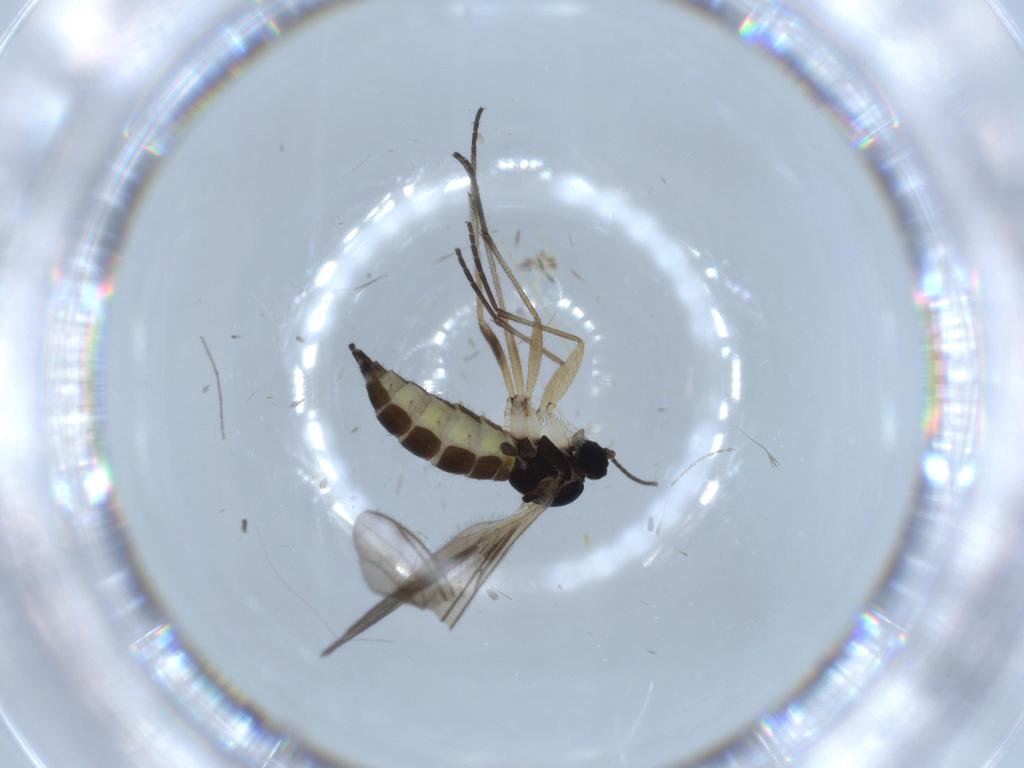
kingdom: Animalia
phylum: Arthropoda
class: Insecta
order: Diptera
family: Sciaridae
